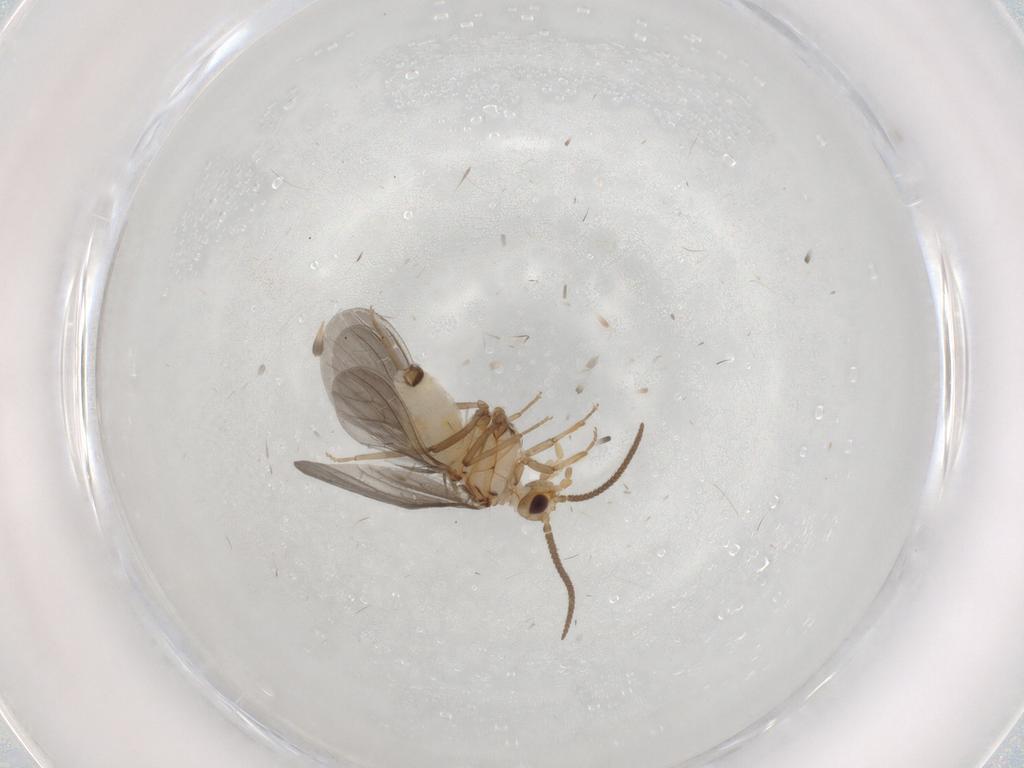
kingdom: Animalia
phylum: Arthropoda
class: Insecta
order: Neuroptera
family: Coniopterygidae
